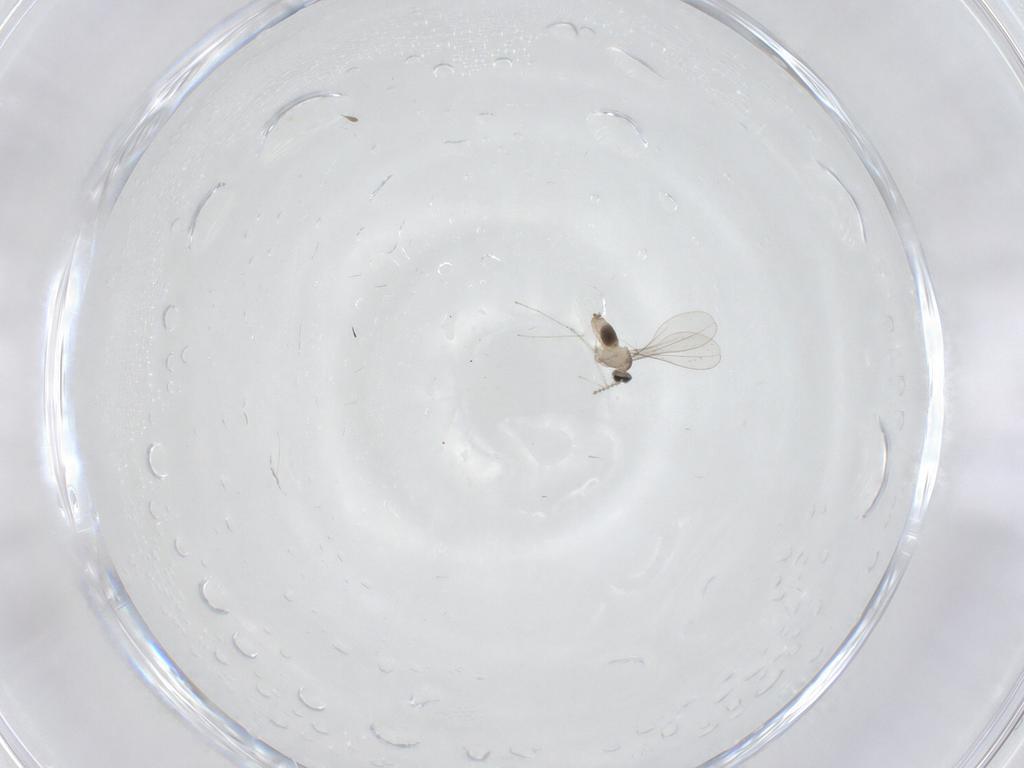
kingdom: Animalia
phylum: Arthropoda
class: Insecta
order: Diptera
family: Cecidomyiidae
